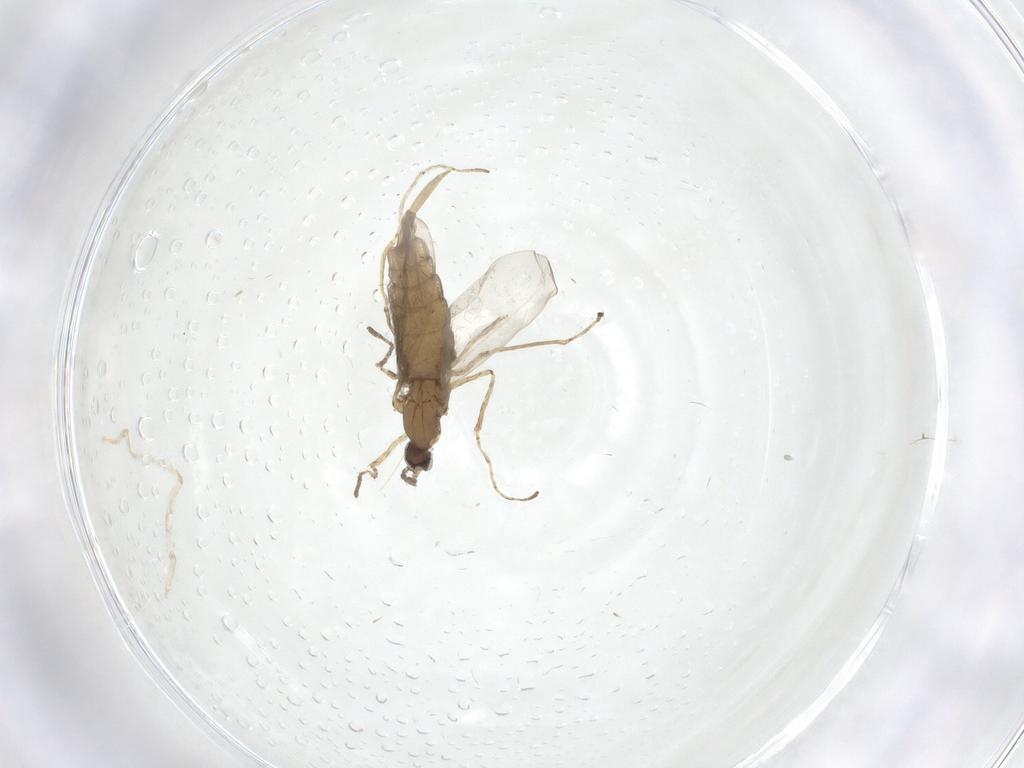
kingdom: Animalia
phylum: Arthropoda
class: Insecta
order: Diptera
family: Cecidomyiidae
